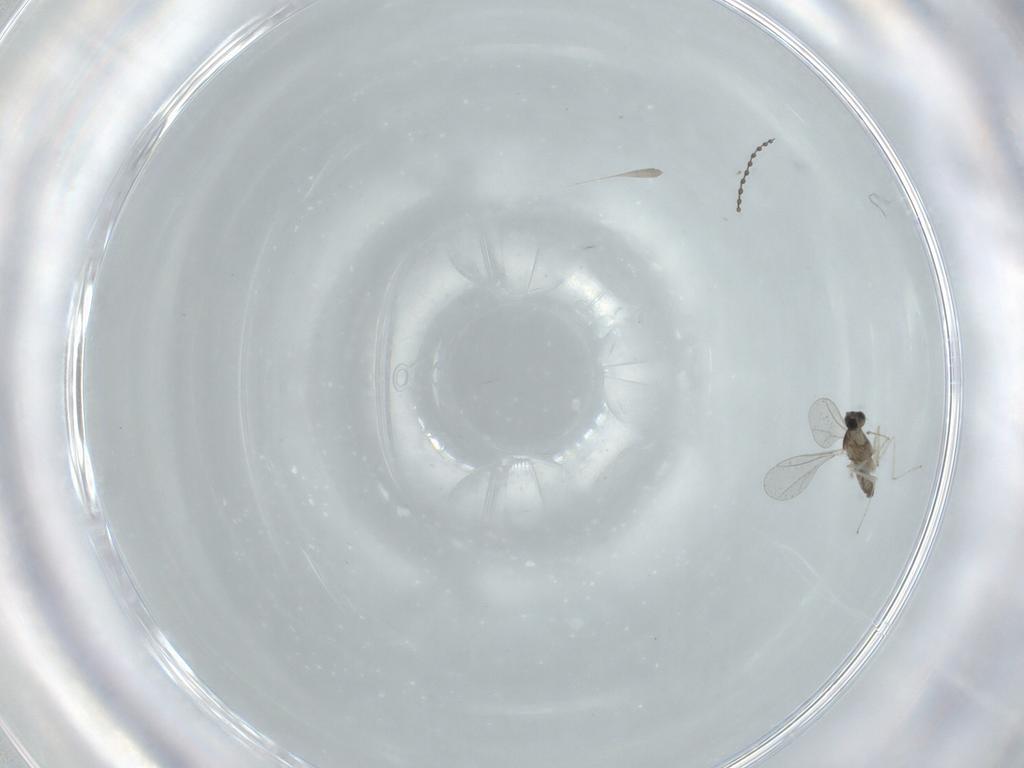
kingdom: Animalia
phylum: Arthropoda
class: Insecta
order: Diptera
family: Cecidomyiidae
